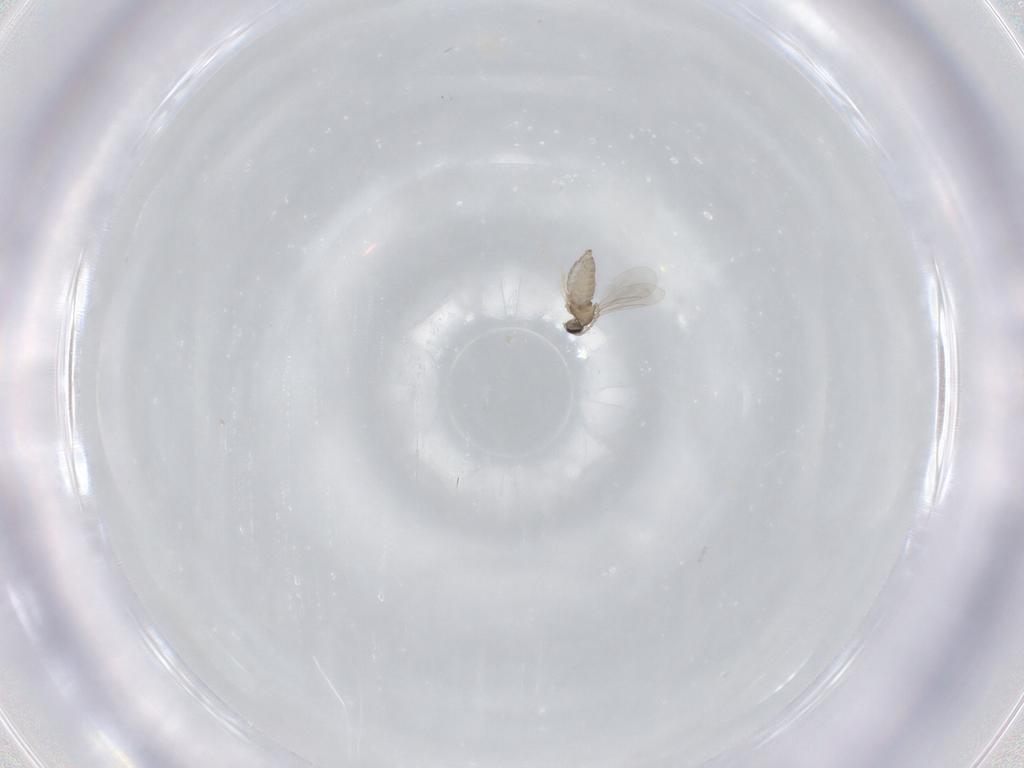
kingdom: Animalia
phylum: Arthropoda
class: Insecta
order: Diptera
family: Cecidomyiidae
